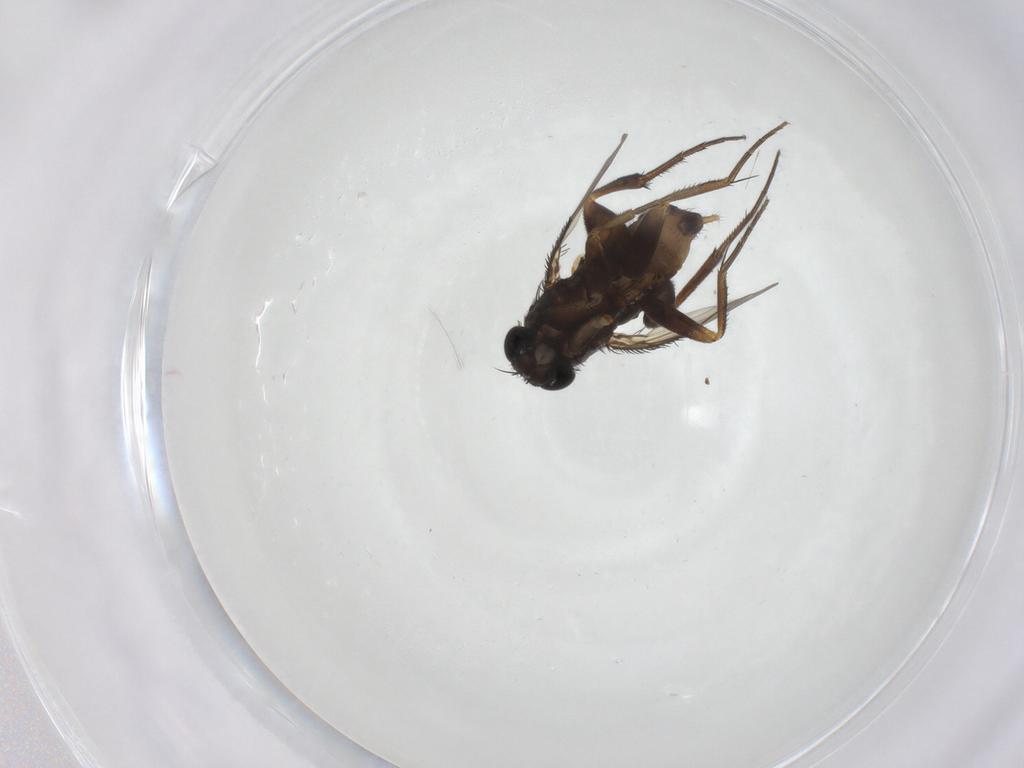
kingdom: Animalia
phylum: Arthropoda
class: Insecta
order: Diptera
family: Phoridae
